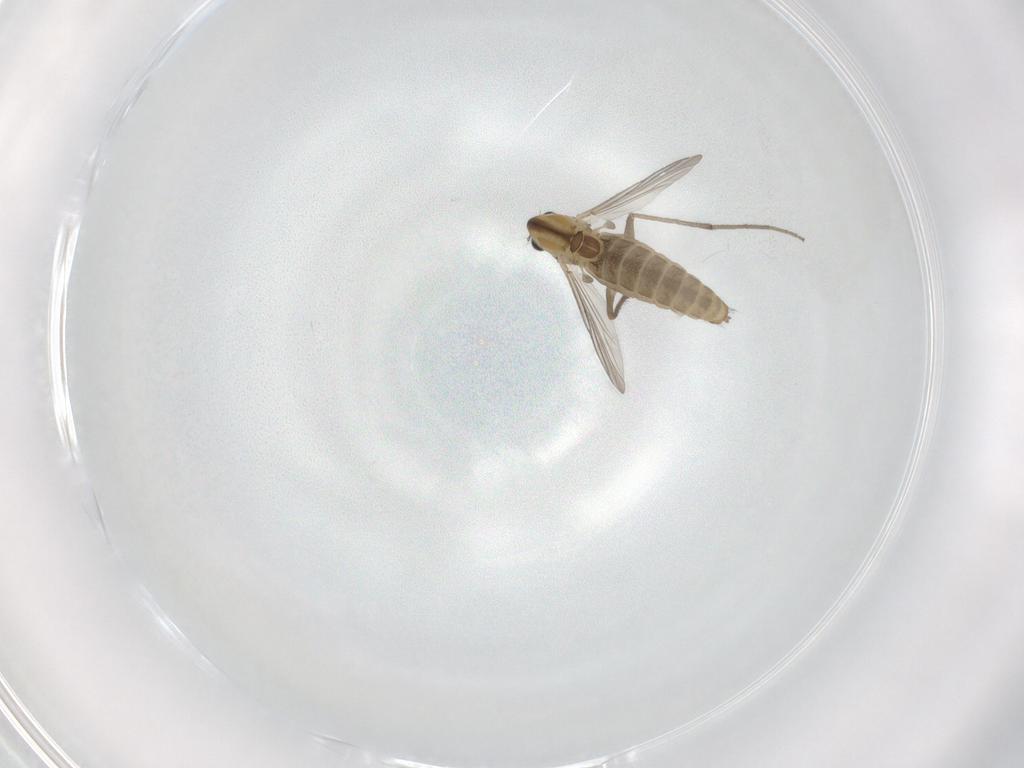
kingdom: Animalia
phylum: Arthropoda
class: Insecta
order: Diptera
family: Chironomidae
